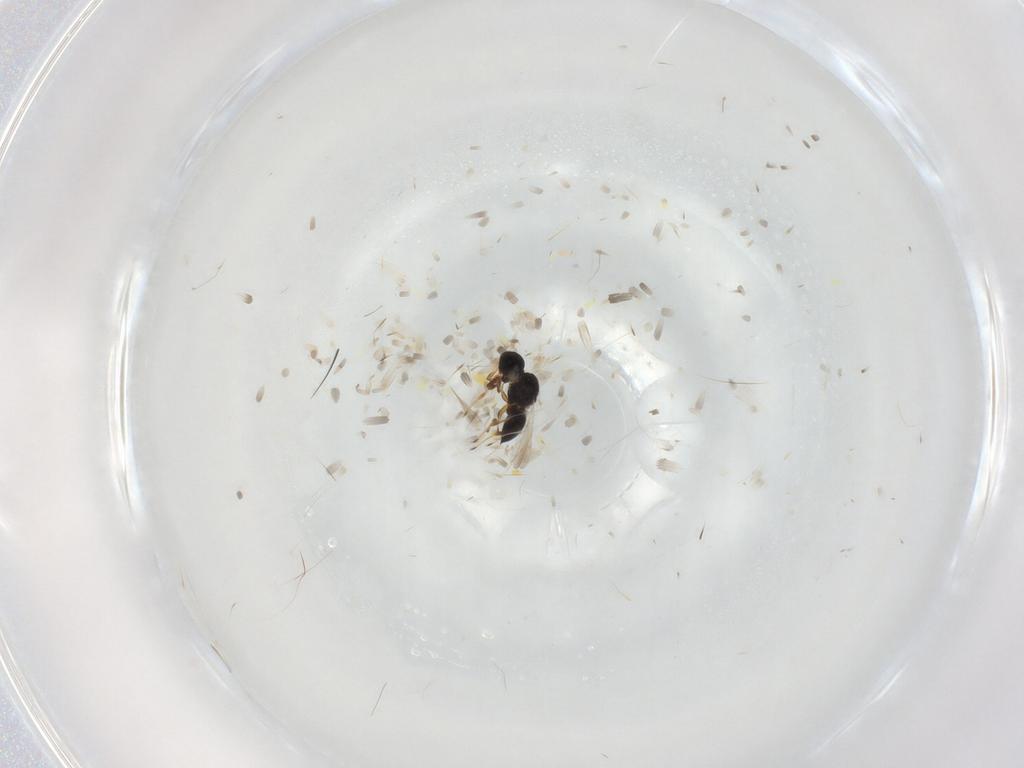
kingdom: Animalia
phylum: Arthropoda
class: Insecta
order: Hymenoptera
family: Platygastridae
